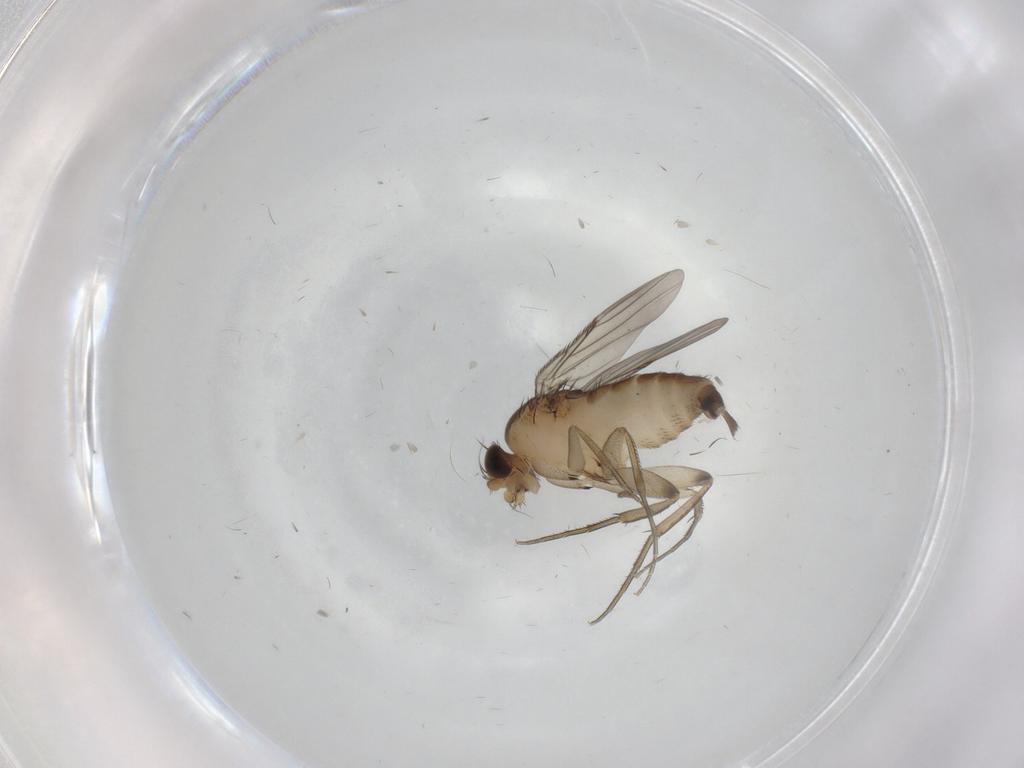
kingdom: Animalia
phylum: Arthropoda
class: Insecta
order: Diptera
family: Phoridae
